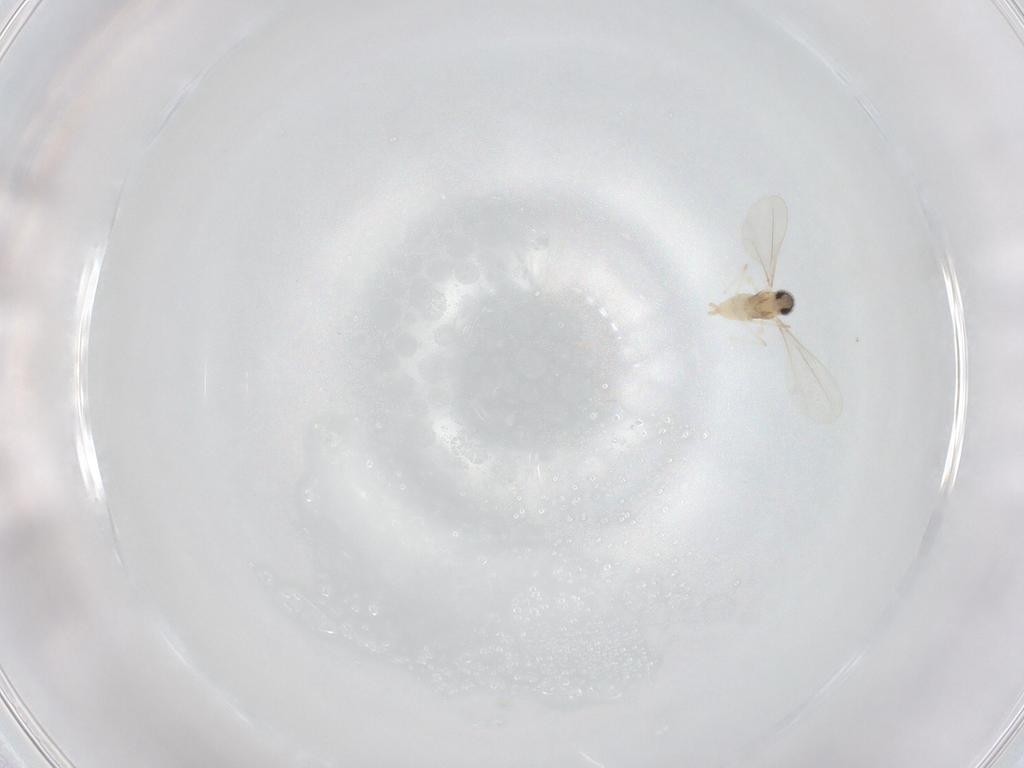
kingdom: Animalia
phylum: Arthropoda
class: Insecta
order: Diptera
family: Cecidomyiidae
